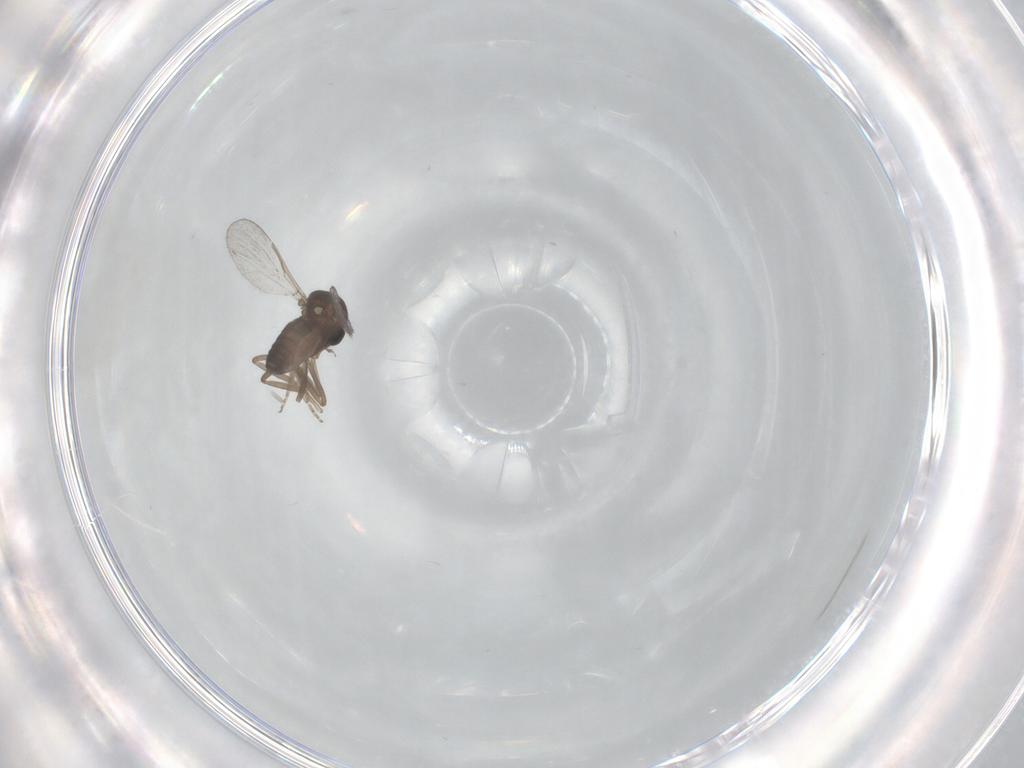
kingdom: Animalia
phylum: Arthropoda
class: Insecta
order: Diptera
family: Ceratopogonidae
